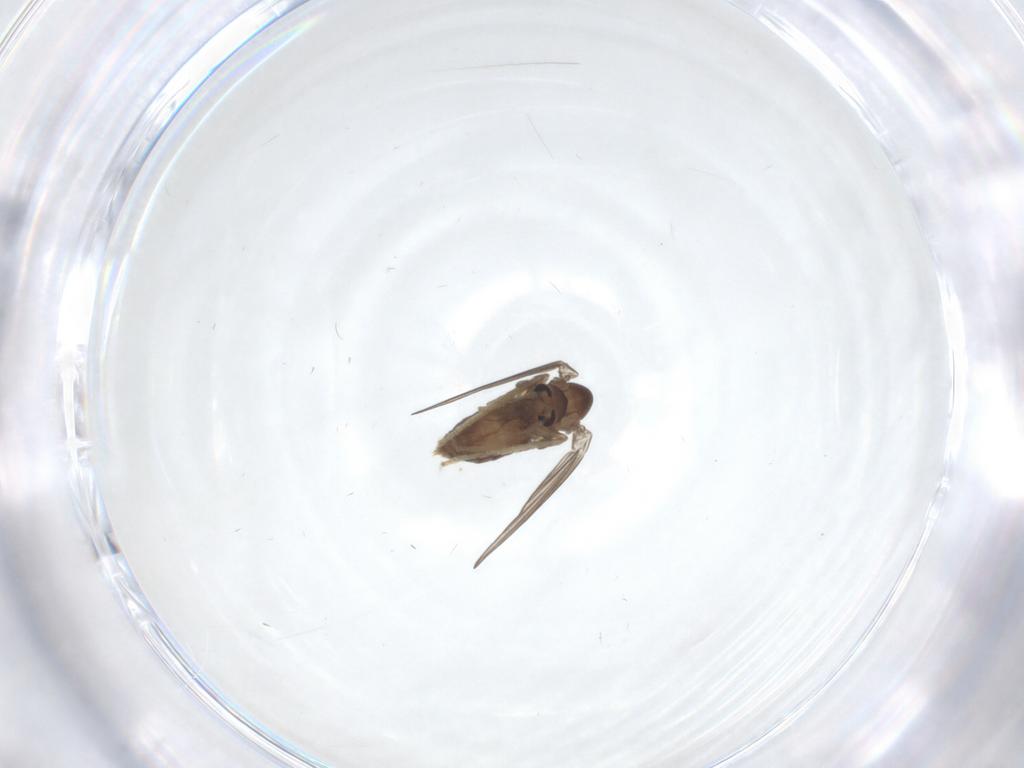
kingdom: Animalia
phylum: Arthropoda
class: Insecta
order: Diptera
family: Psychodidae
